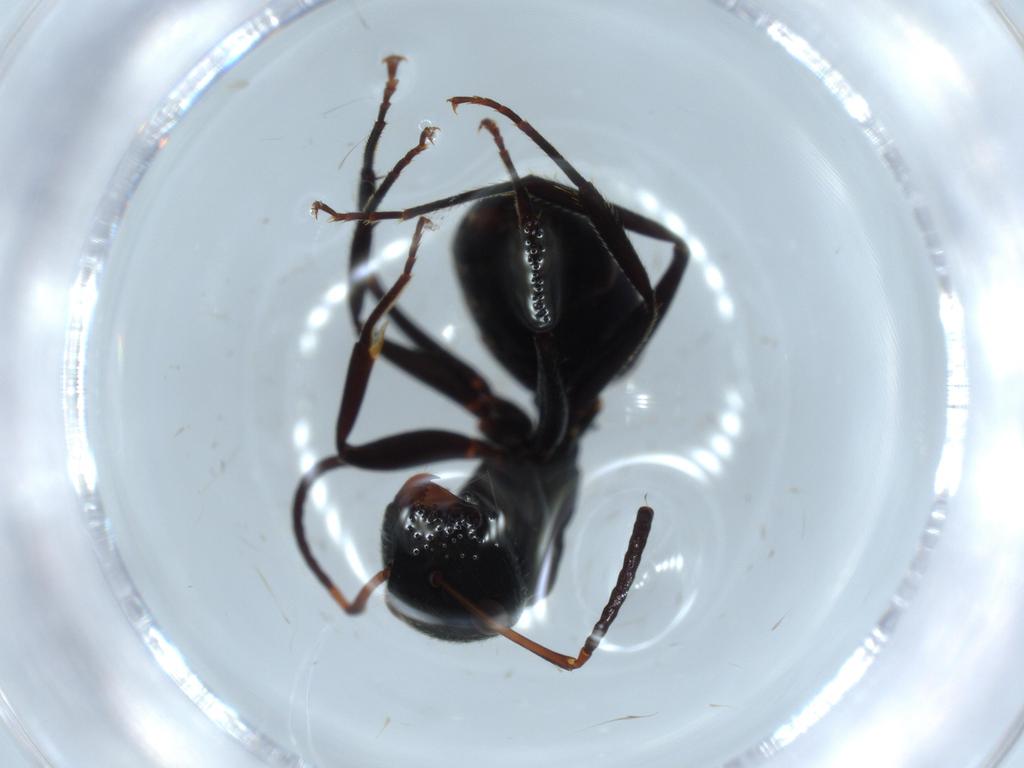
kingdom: Animalia
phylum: Arthropoda
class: Insecta
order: Hymenoptera
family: Formicidae
